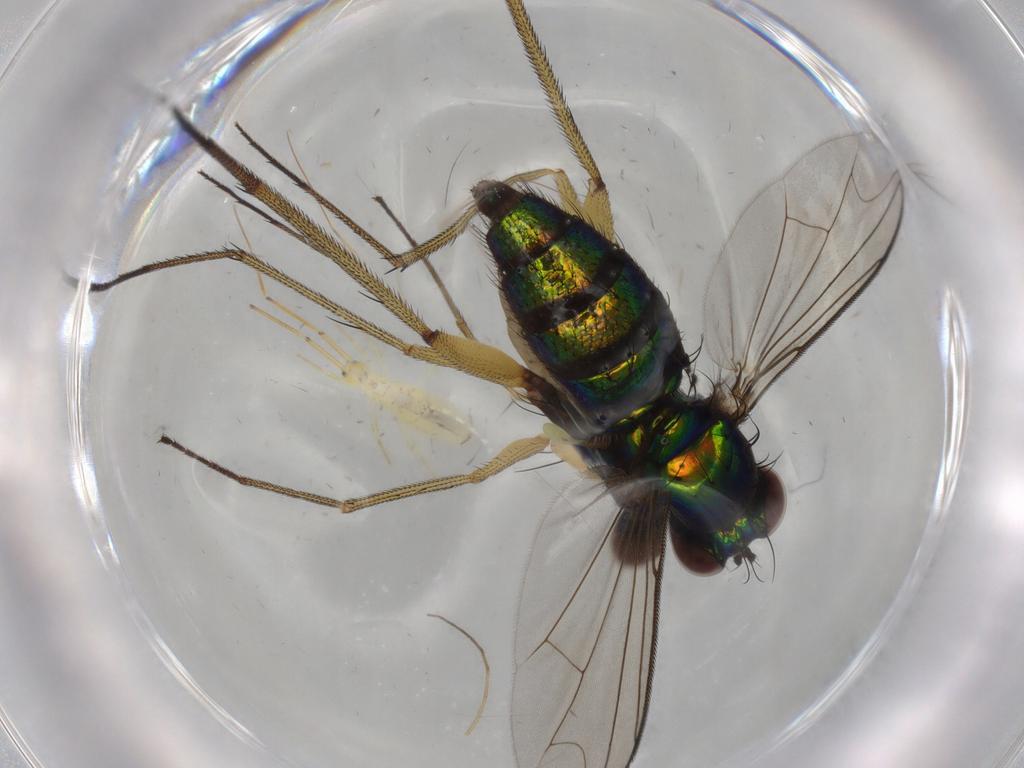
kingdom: Animalia
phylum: Arthropoda
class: Insecta
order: Diptera
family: Dolichopodidae
